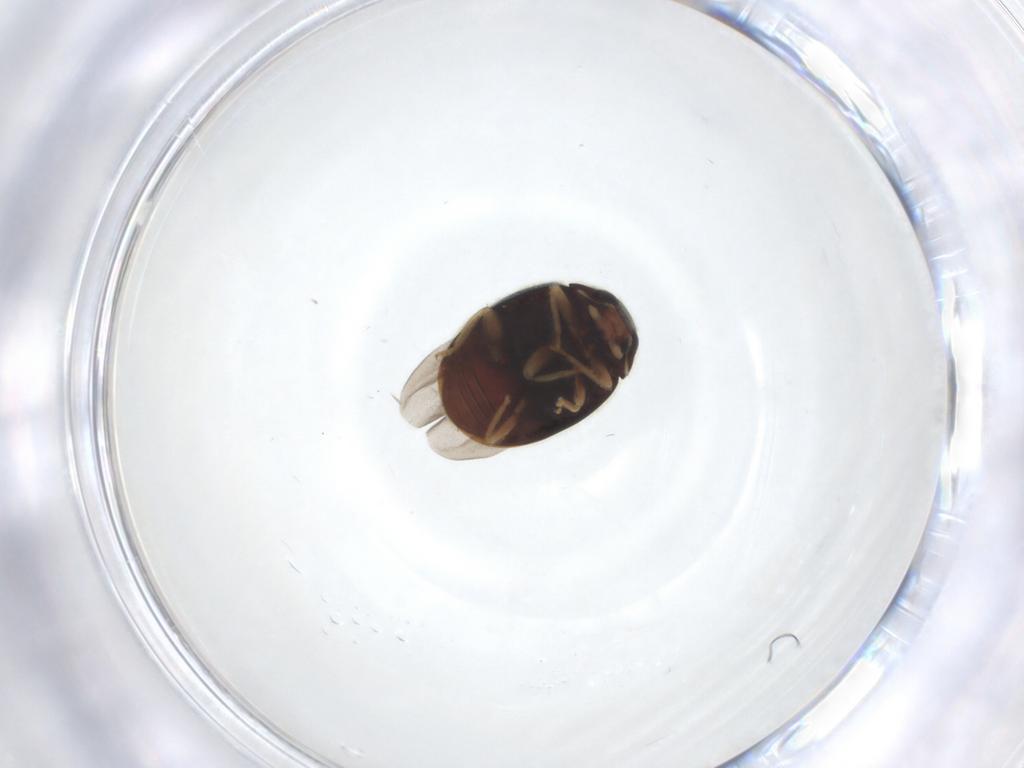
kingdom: Animalia
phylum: Arthropoda
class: Insecta
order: Coleoptera
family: Coccinellidae
